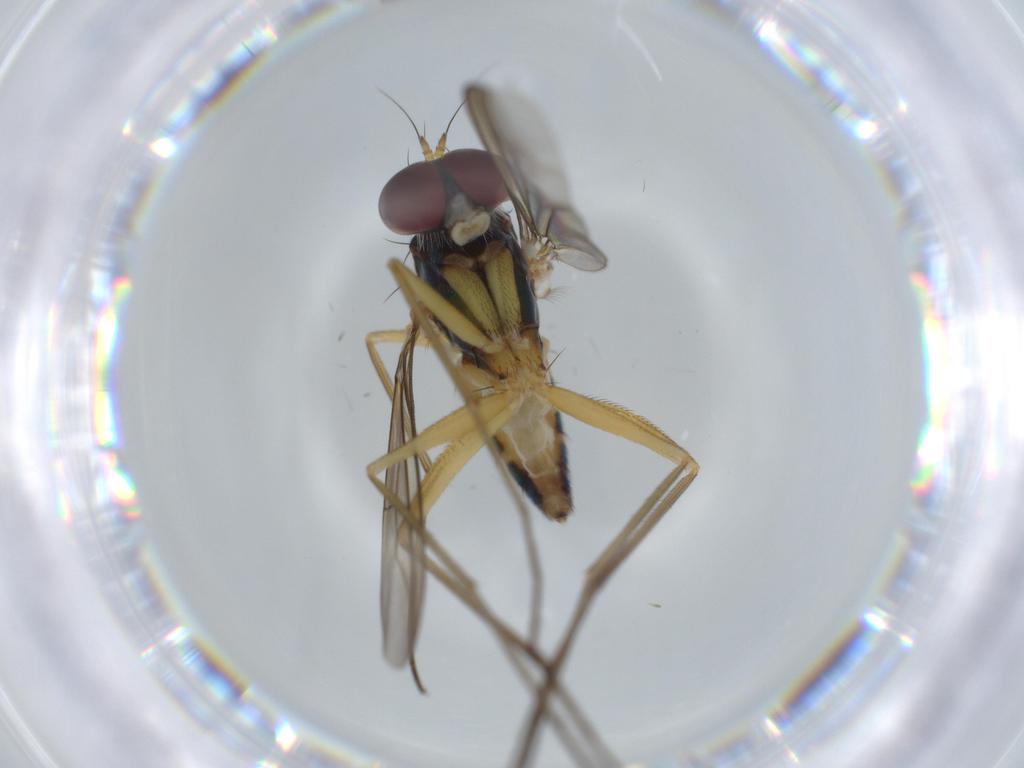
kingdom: Animalia
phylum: Arthropoda
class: Insecta
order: Diptera
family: Dolichopodidae
